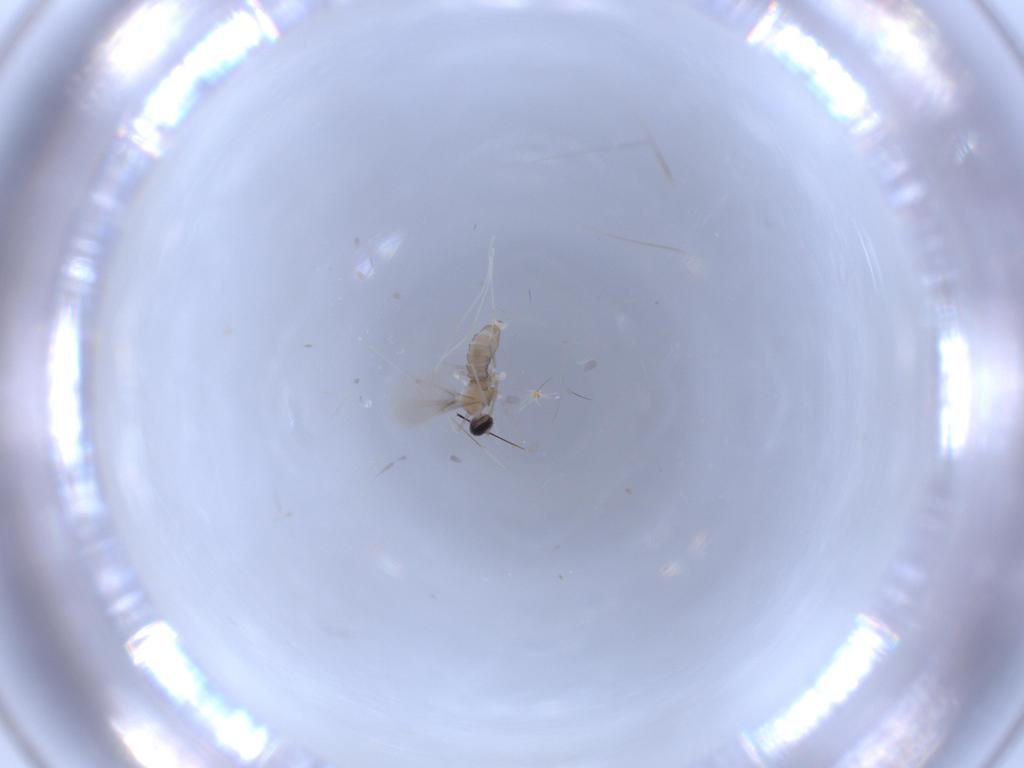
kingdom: Animalia
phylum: Arthropoda
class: Insecta
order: Diptera
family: Cecidomyiidae
